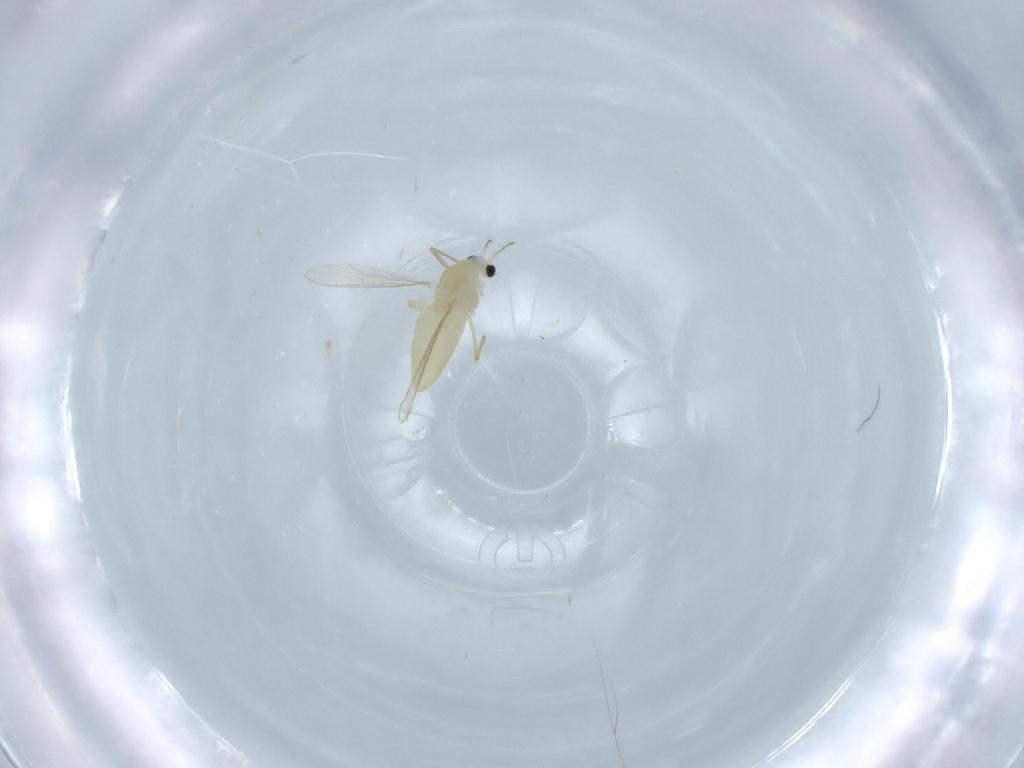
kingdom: Animalia
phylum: Arthropoda
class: Insecta
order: Diptera
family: Chironomidae
